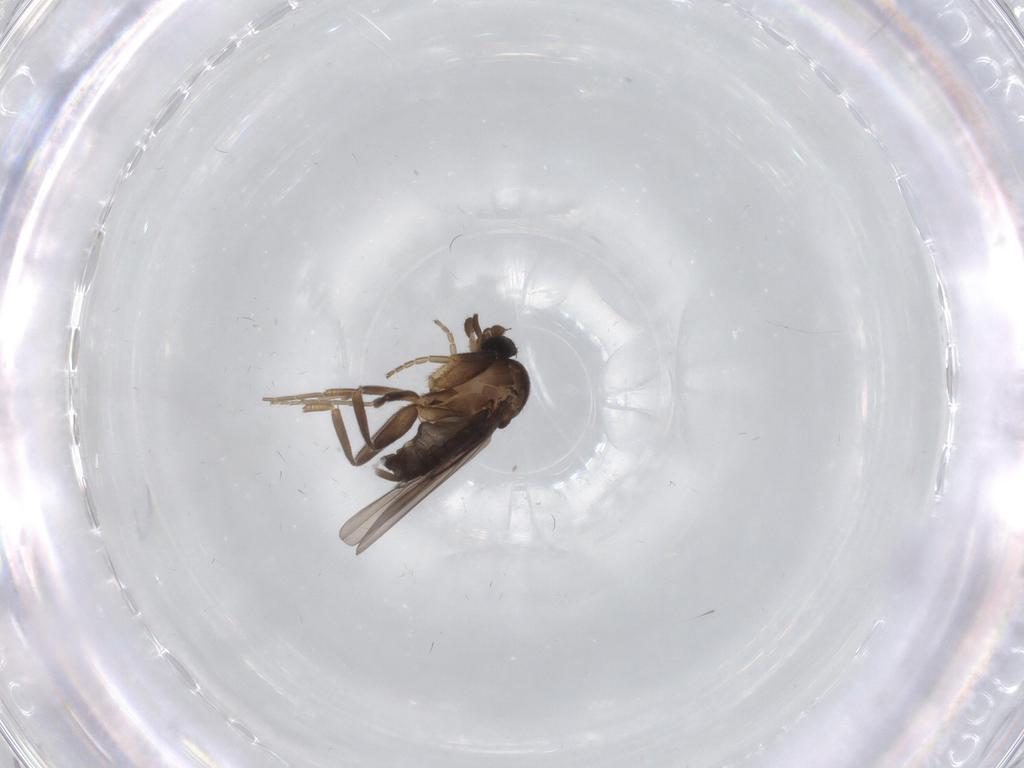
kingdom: Animalia
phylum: Arthropoda
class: Insecta
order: Diptera
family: Phoridae
